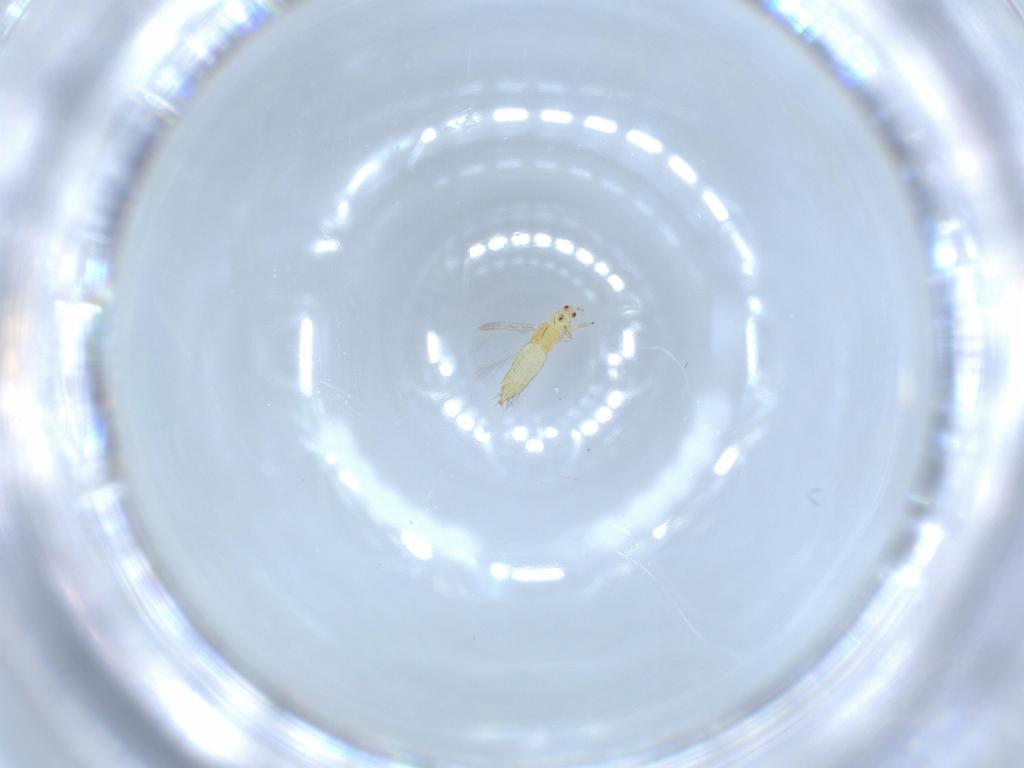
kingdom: Animalia
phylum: Arthropoda
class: Insecta
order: Thysanoptera
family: Thripidae
